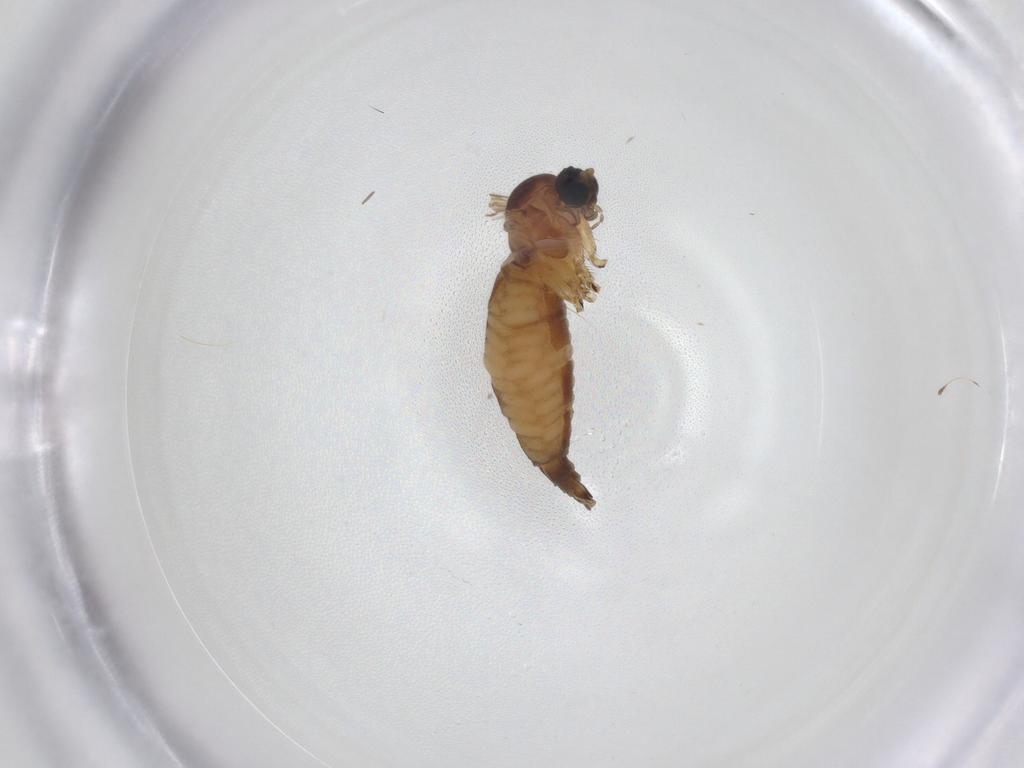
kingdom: Animalia
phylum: Arthropoda
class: Insecta
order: Diptera
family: Sciaridae
